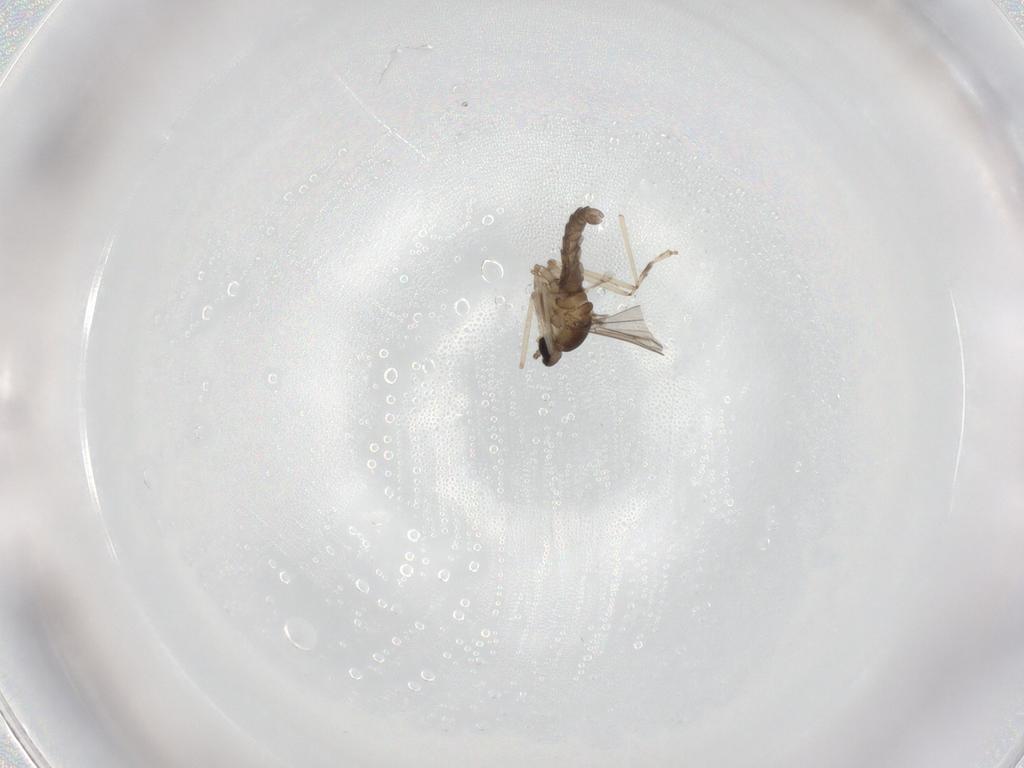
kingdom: Animalia
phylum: Arthropoda
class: Insecta
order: Diptera
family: Cecidomyiidae
